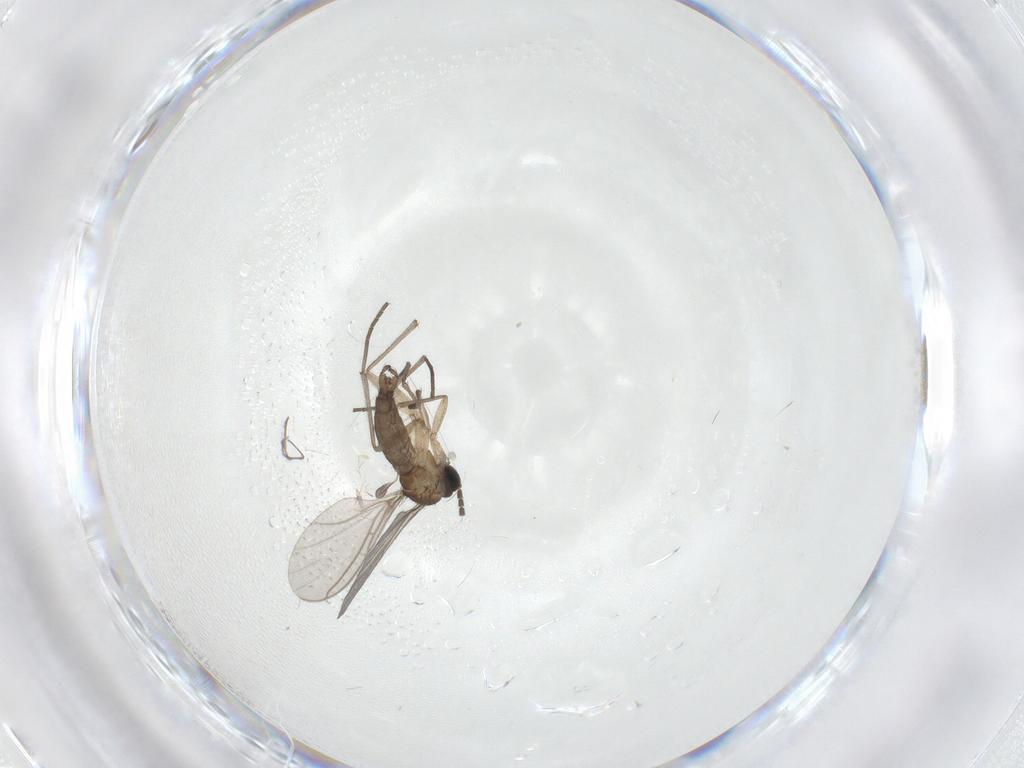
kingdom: Animalia
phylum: Arthropoda
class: Insecta
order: Diptera
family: Sciaridae
